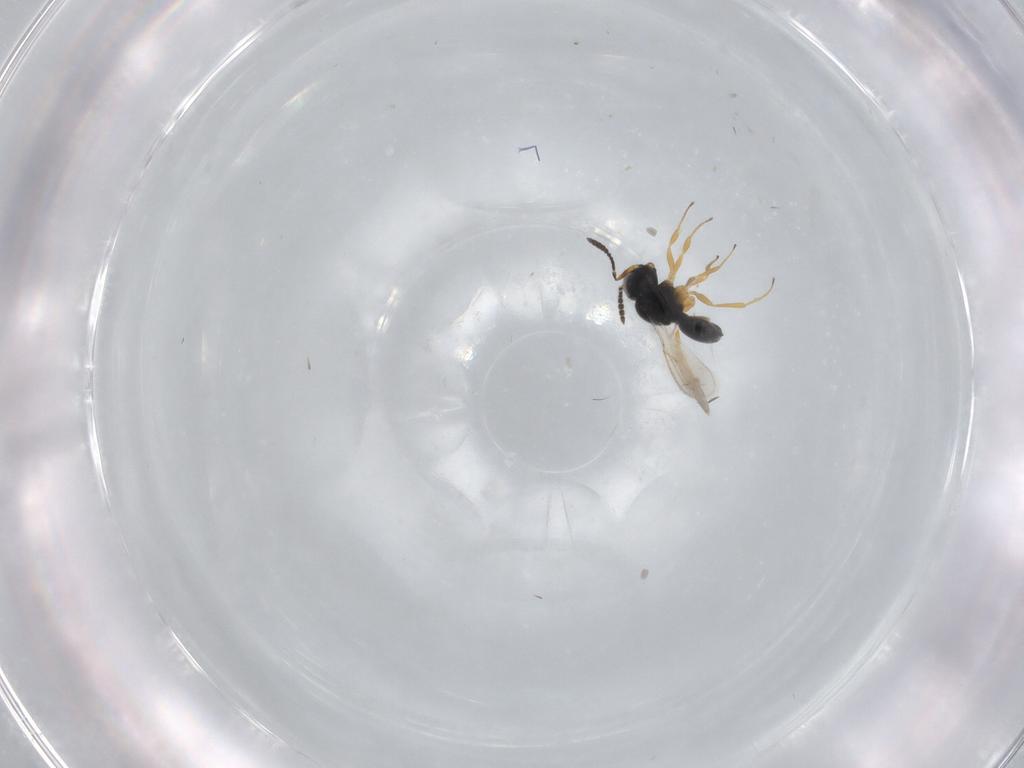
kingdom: Animalia
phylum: Arthropoda
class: Insecta
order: Hymenoptera
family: Scelionidae
